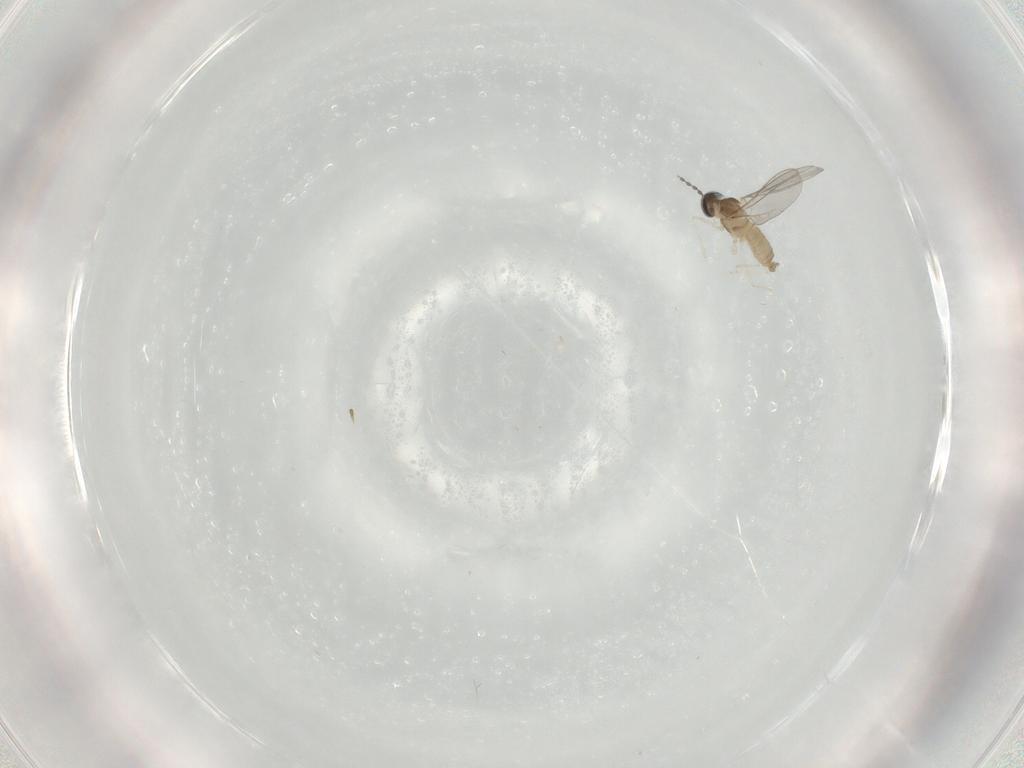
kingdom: Animalia
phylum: Arthropoda
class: Insecta
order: Diptera
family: Cecidomyiidae
